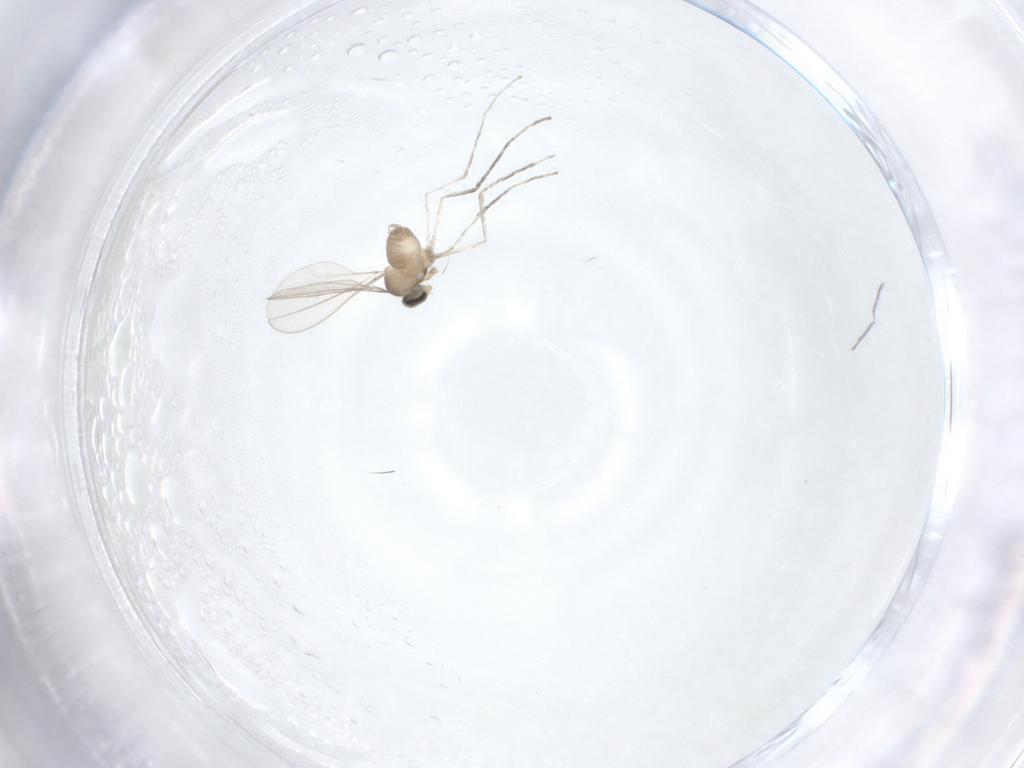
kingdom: Animalia
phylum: Arthropoda
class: Insecta
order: Diptera
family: Cecidomyiidae
